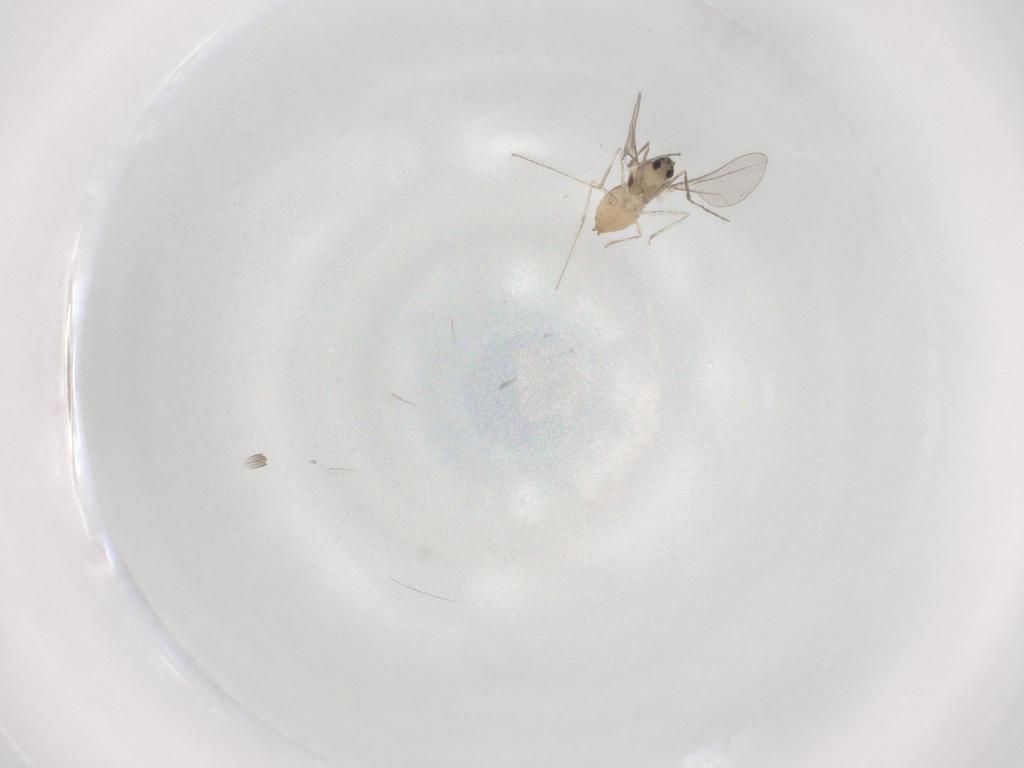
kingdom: Animalia
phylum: Arthropoda
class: Insecta
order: Diptera
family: Cecidomyiidae
